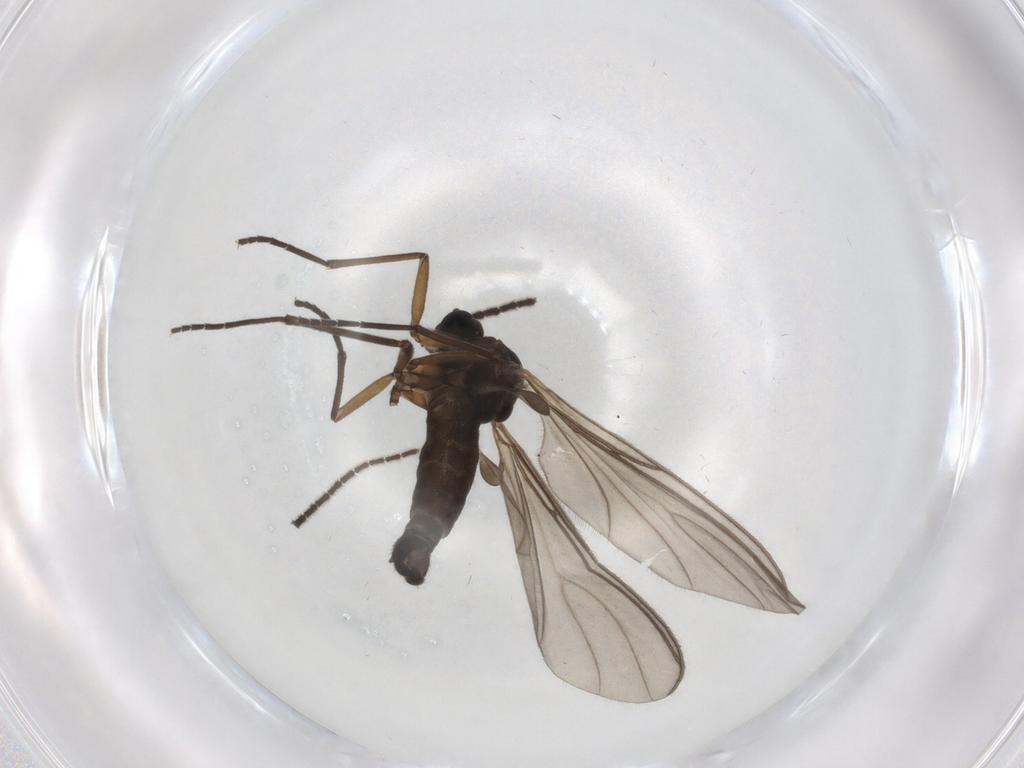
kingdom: Animalia
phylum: Arthropoda
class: Insecta
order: Diptera
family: Sciaridae
